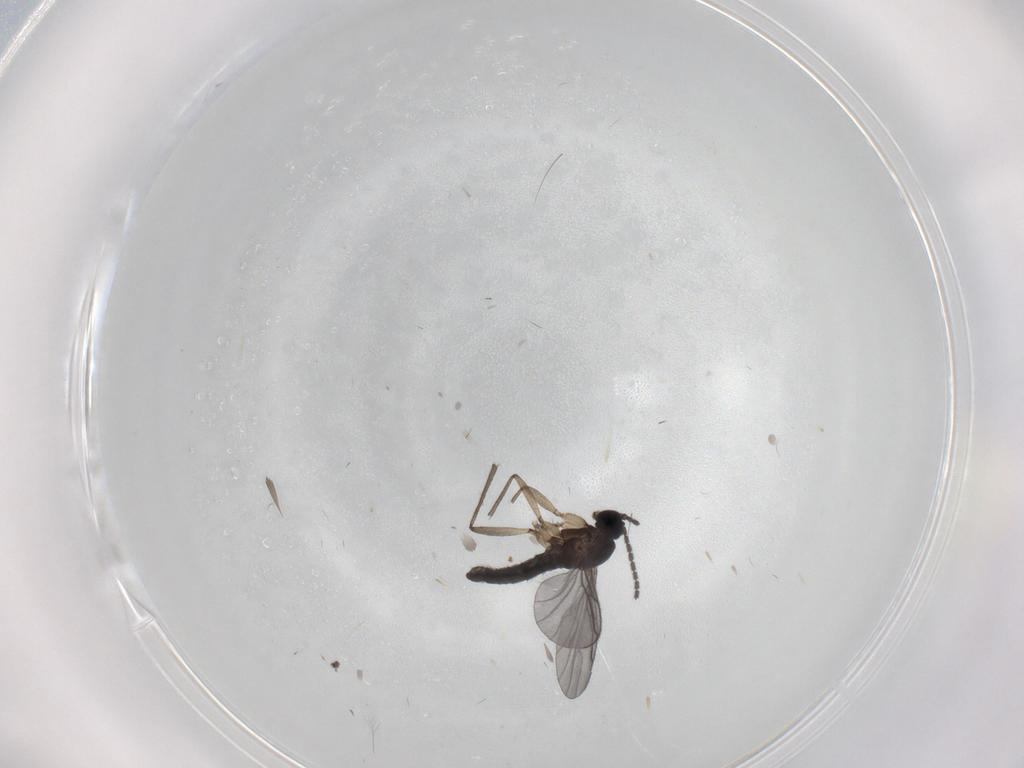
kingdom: Animalia
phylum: Arthropoda
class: Insecta
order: Diptera
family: Sciaridae
